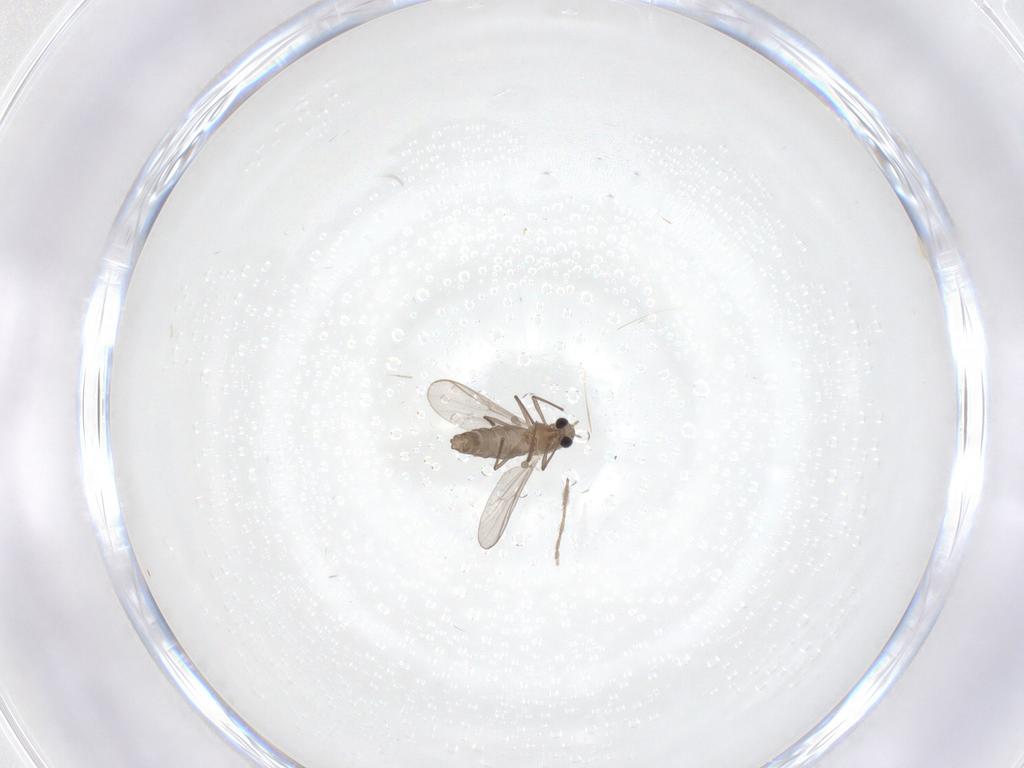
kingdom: Animalia
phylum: Arthropoda
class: Insecta
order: Diptera
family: Chironomidae
